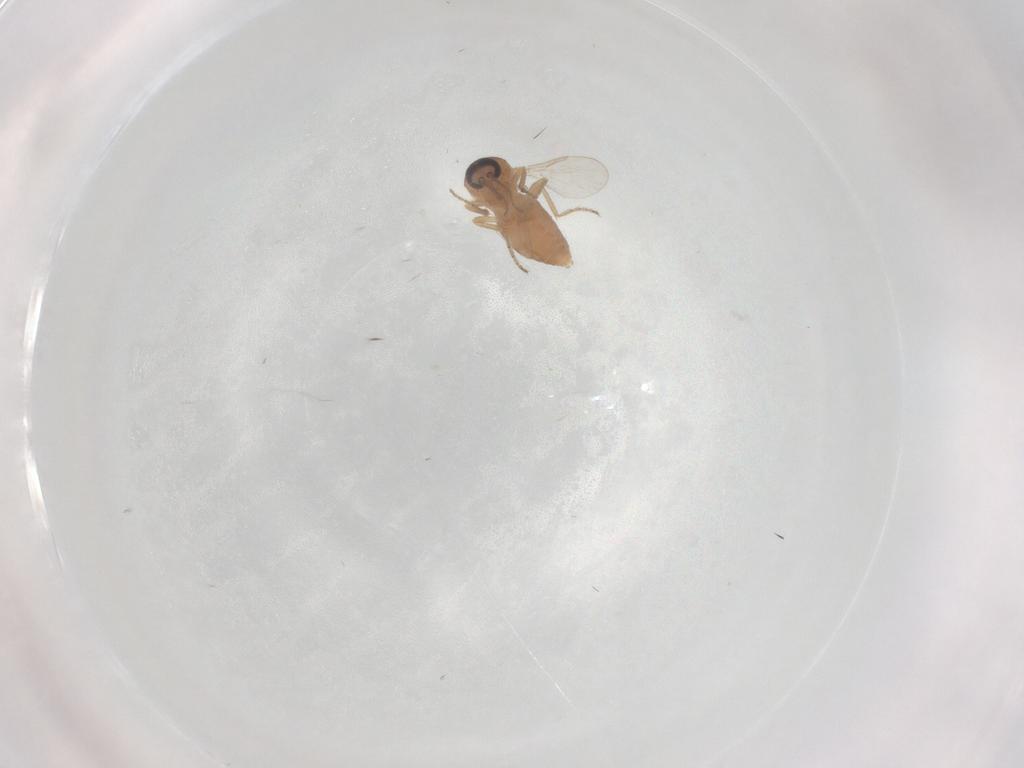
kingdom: Animalia
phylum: Arthropoda
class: Insecta
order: Diptera
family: Ceratopogonidae
